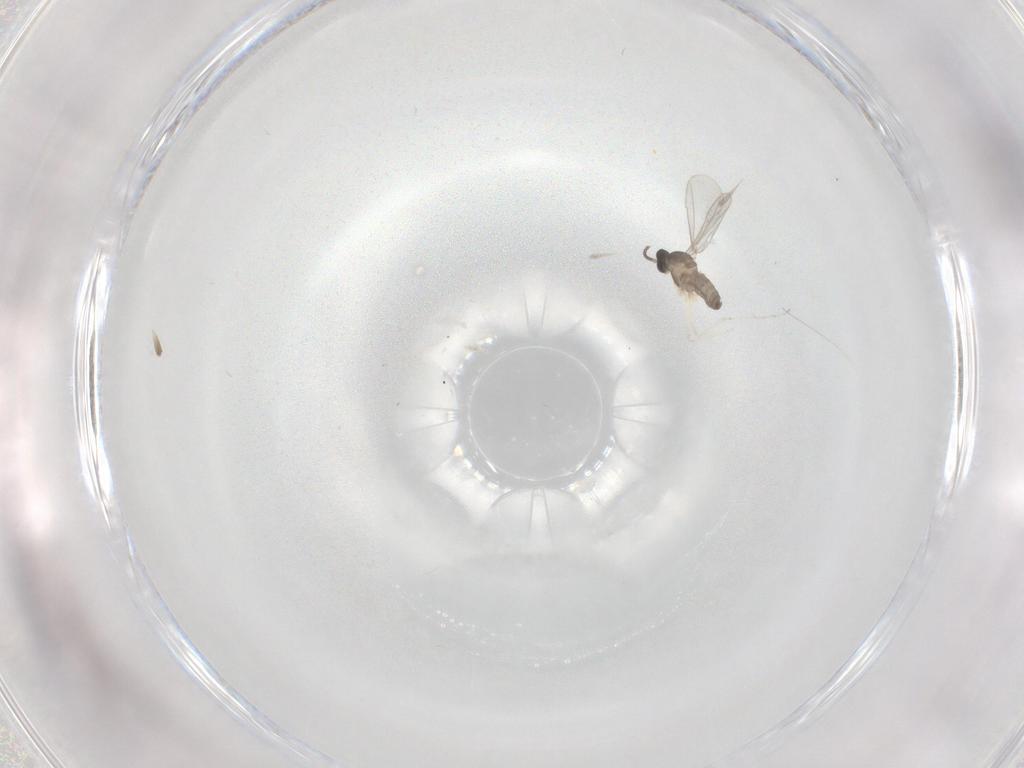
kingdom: Animalia
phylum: Arthropoda
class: Insecta
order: Diptera
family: Cecidomyiidae
